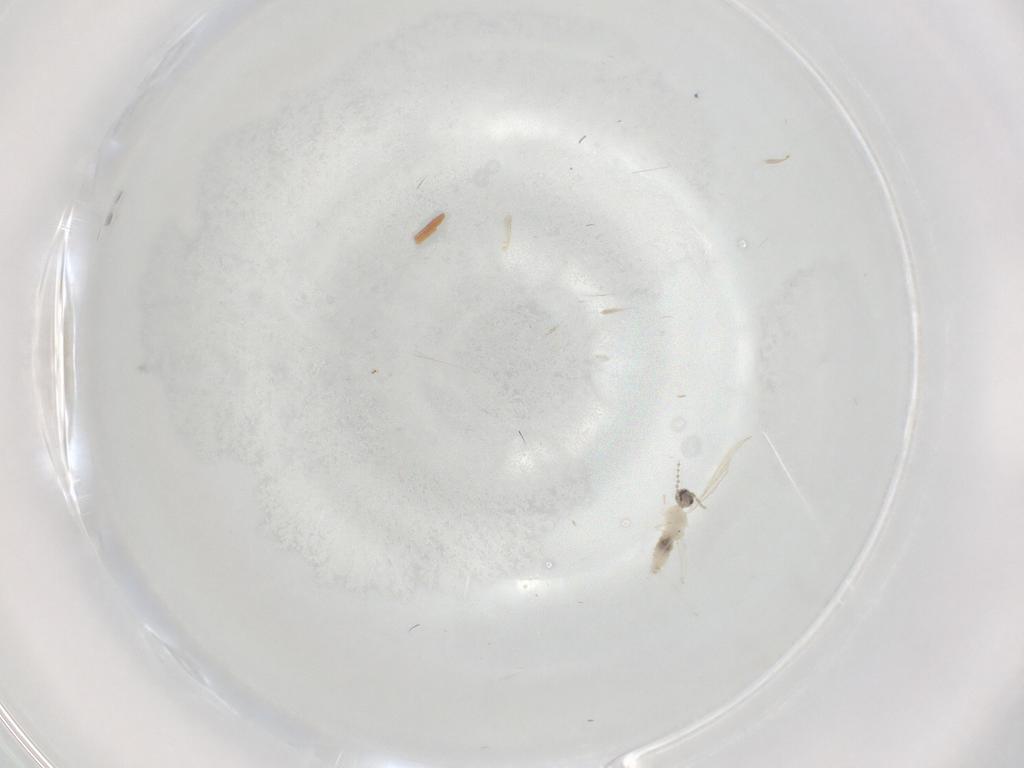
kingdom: Animalia
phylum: Arthropoda
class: Insecta
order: Diptera
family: Cecidomyiidae
